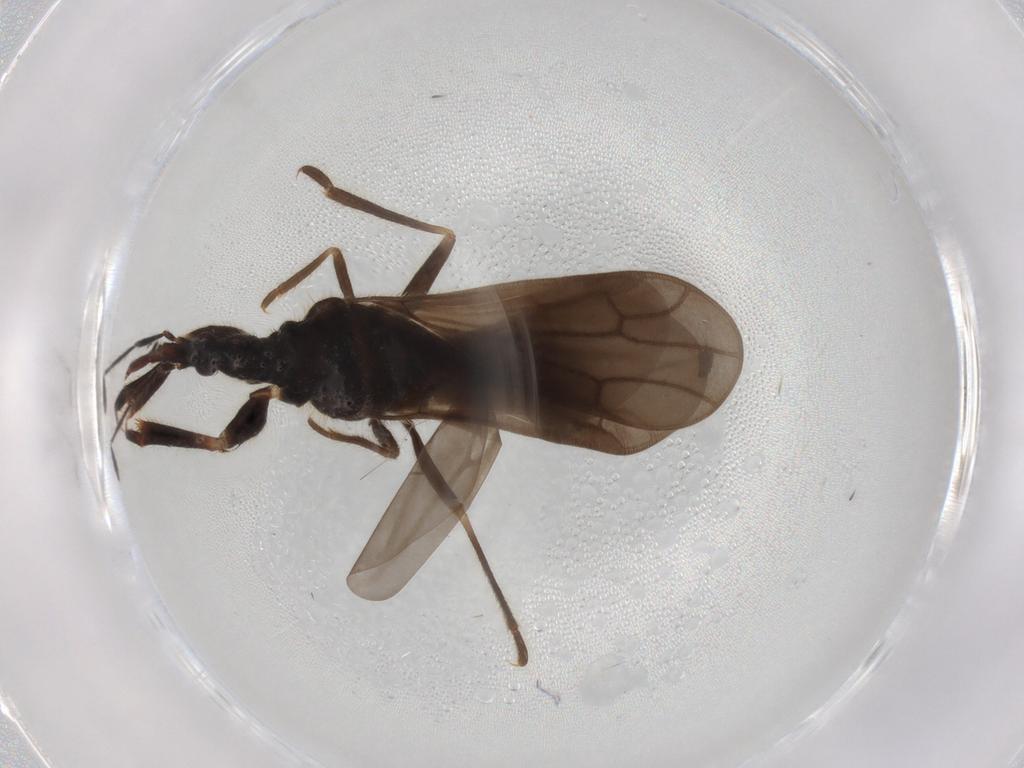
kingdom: Animalia
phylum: Arthropoda
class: Insecta
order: Hemiptera
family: Enicocephalidae
